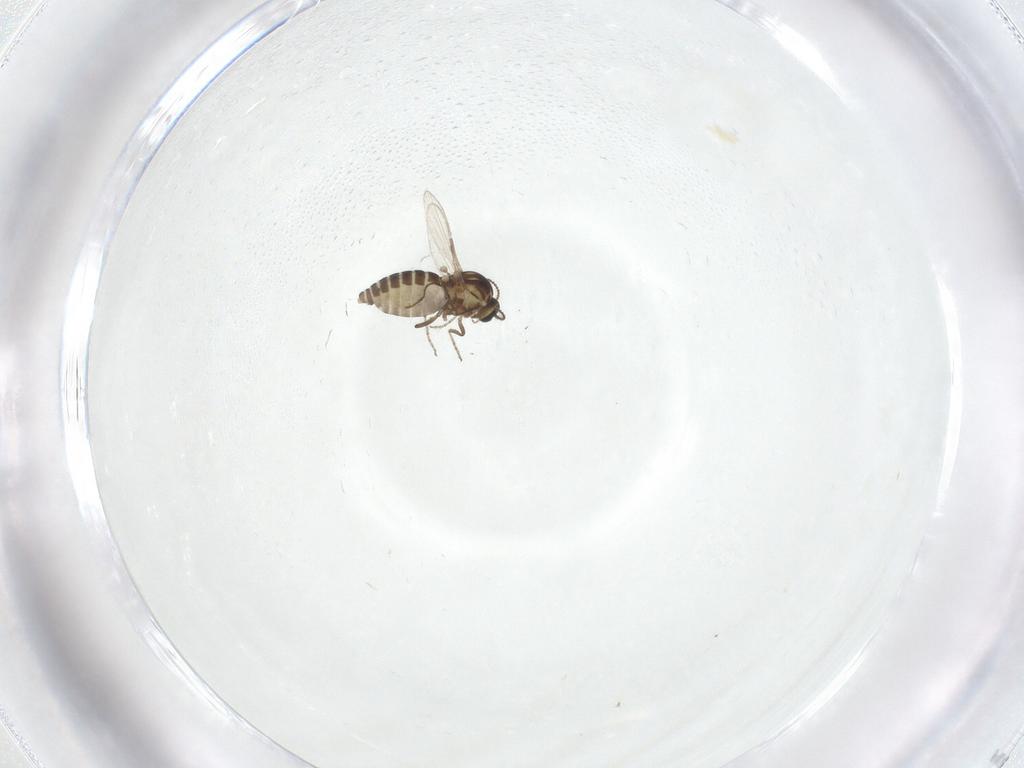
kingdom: Animalia
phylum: Arthropoda
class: Insecta
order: Diptera
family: Ceratopogonidae
